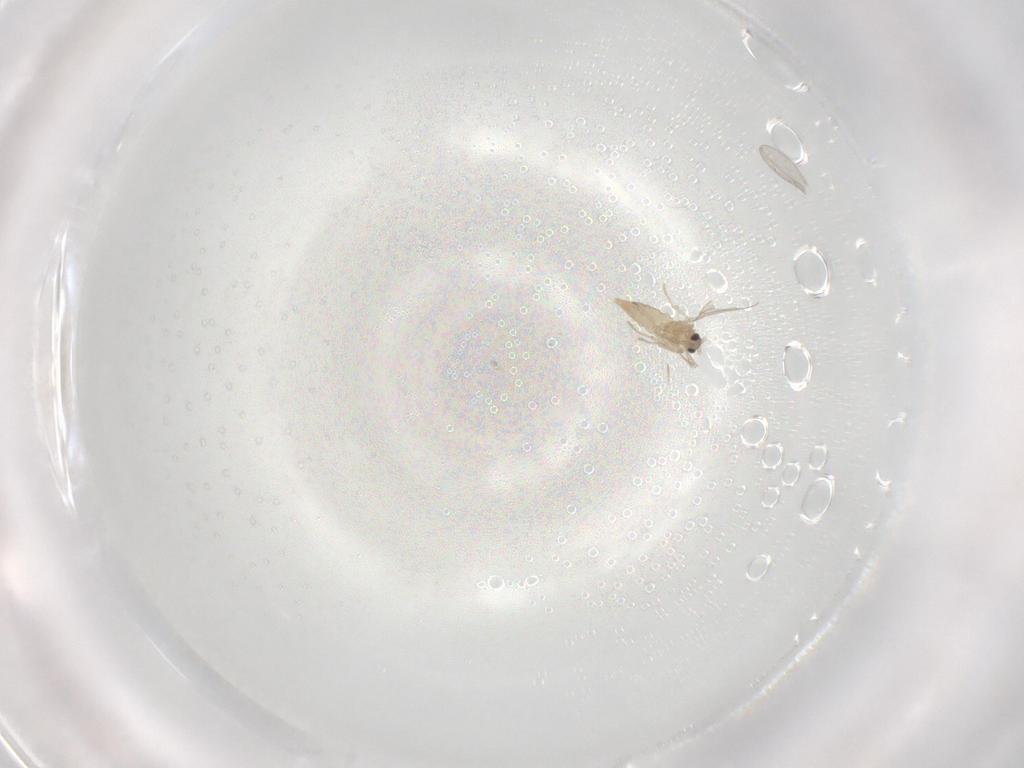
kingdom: Animalia
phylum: Arthropoda
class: Insecta
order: Diptera
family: Cecidomyiidae
